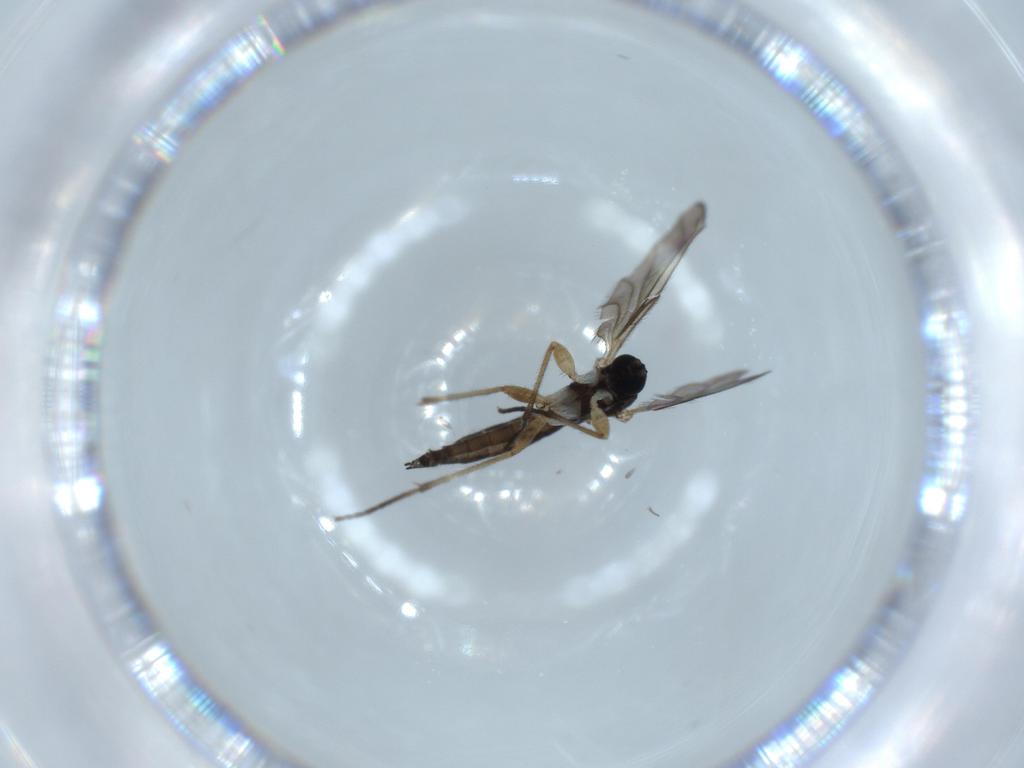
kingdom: Animalia
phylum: Arthropoda
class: Insecta
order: Diptera
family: Sciaridae
